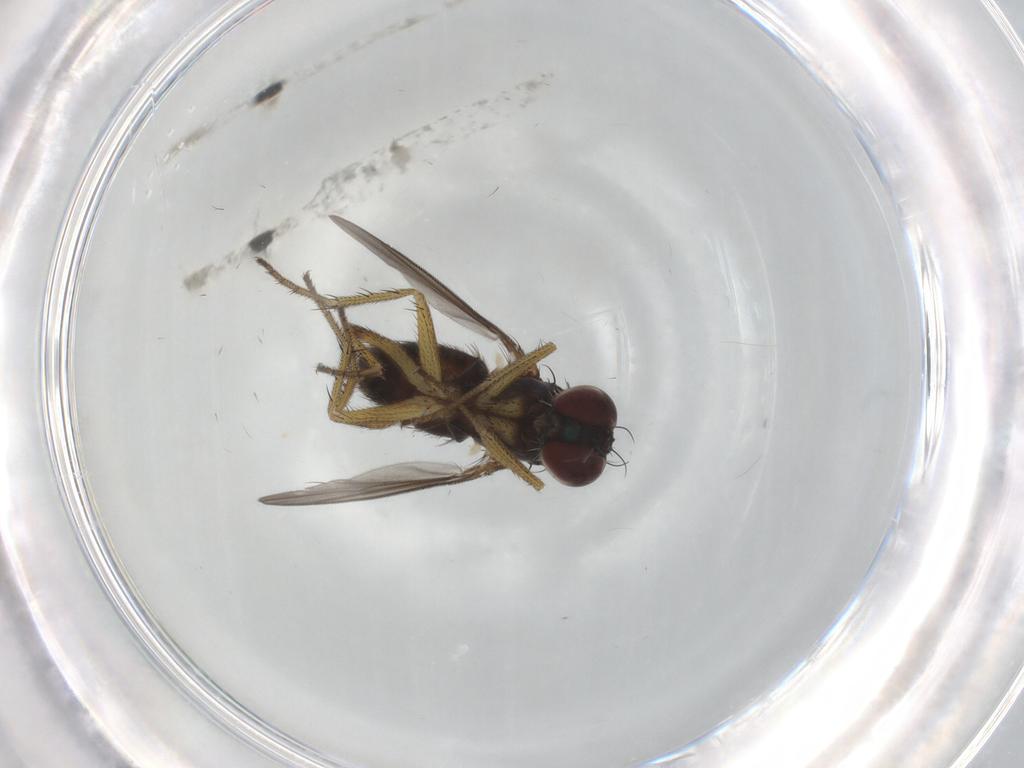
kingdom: Animalia
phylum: Arthropoda
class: Insecta
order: Diptera
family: Dolichopodidae
